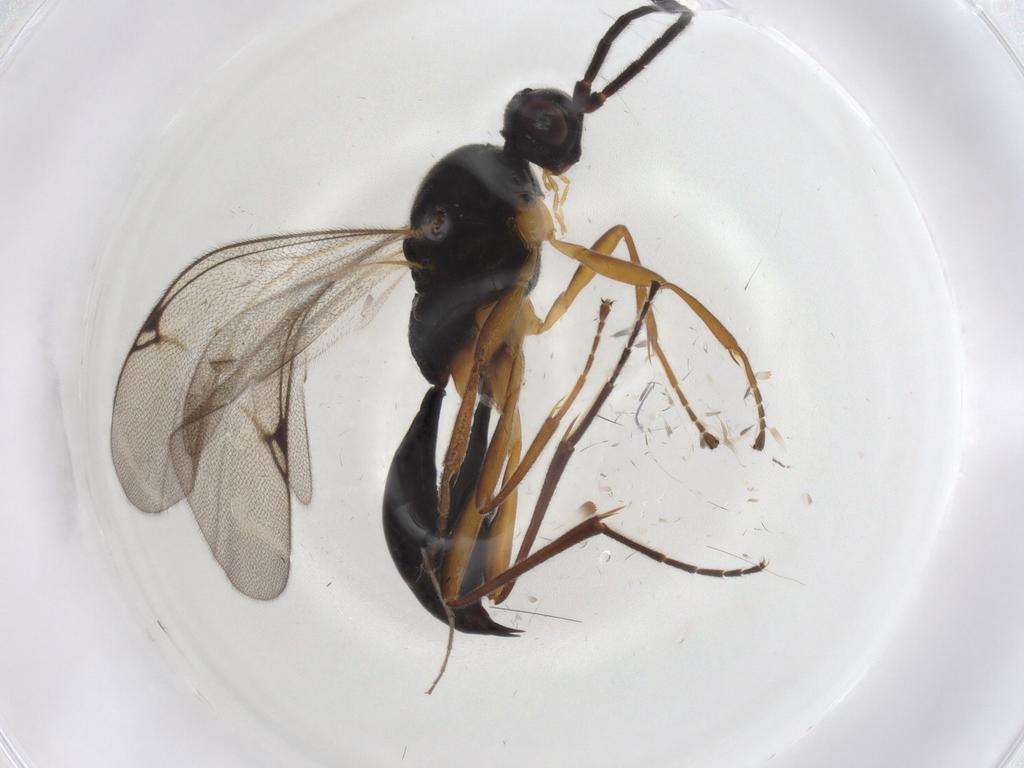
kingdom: Animalia
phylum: Arthropoda
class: Insecta
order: Hymenoptera
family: Proctotrupidae
